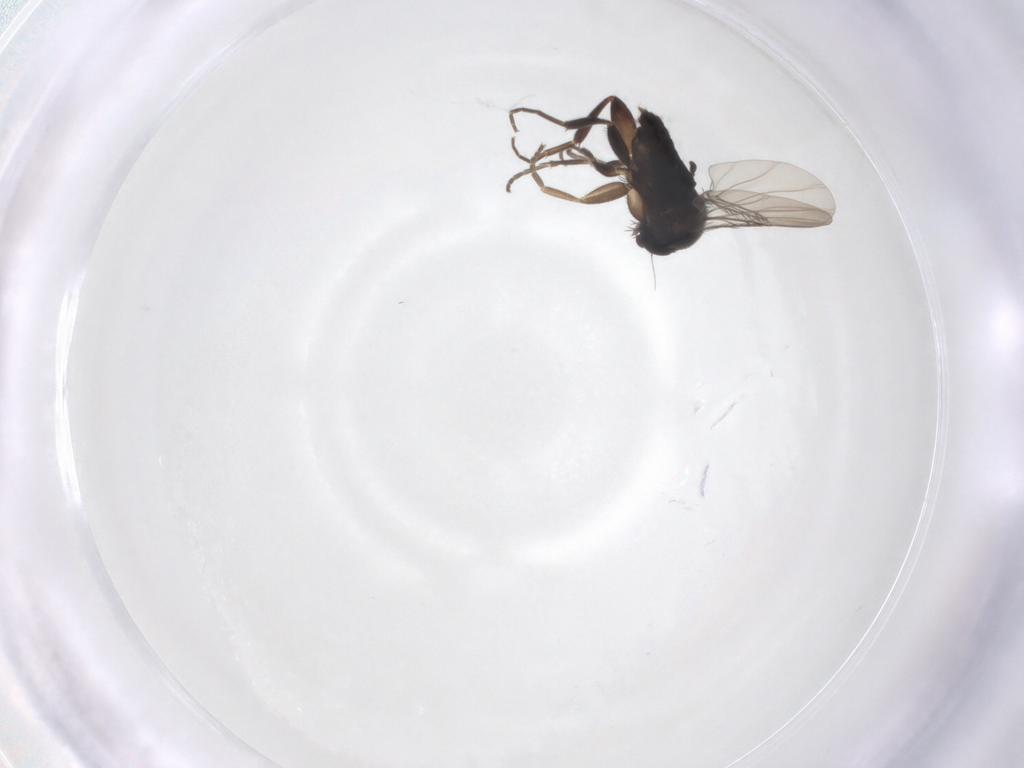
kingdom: Animalia
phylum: Arthropoda
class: Insecta
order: Diptera
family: Phoridae
